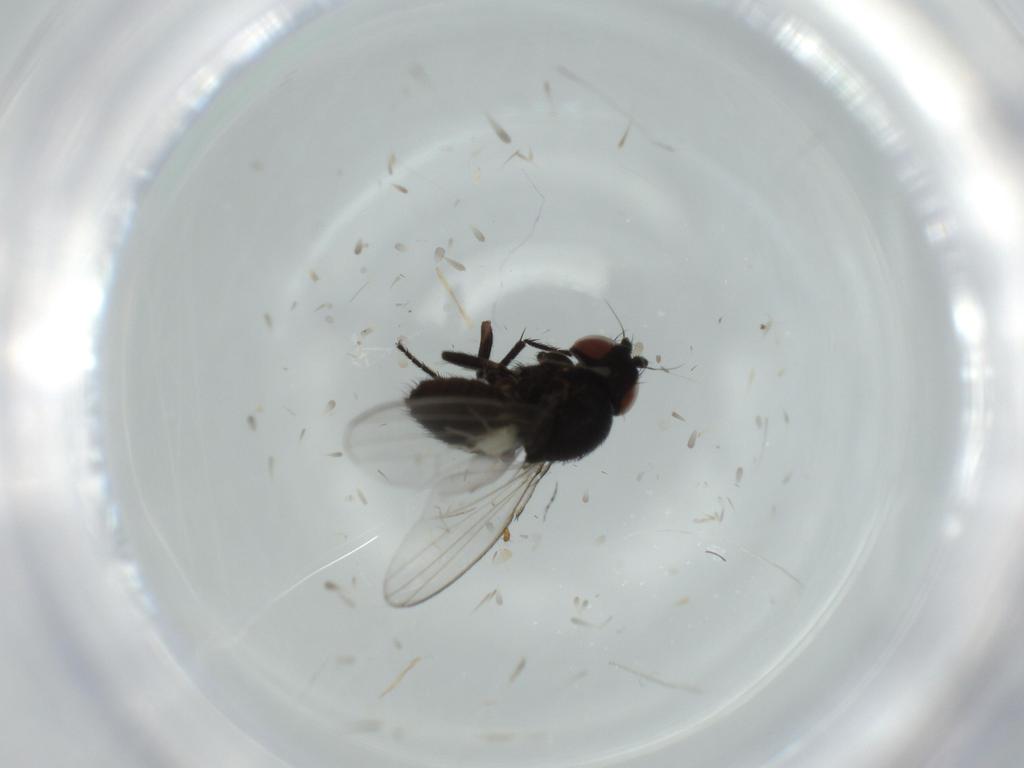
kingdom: Animalia
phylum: Arthropoda
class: Insecta
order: Diptera
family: Milichiidae
